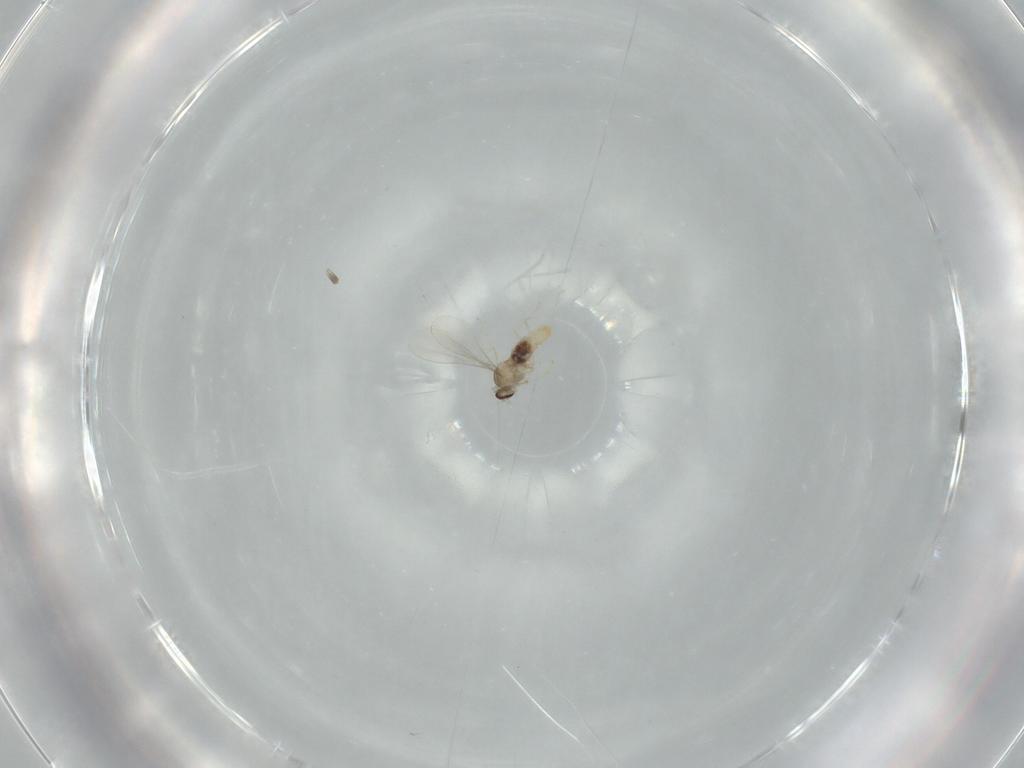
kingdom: Animalia
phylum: Arthropoda
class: Insecta
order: Diptera
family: Cecidomyiidae
